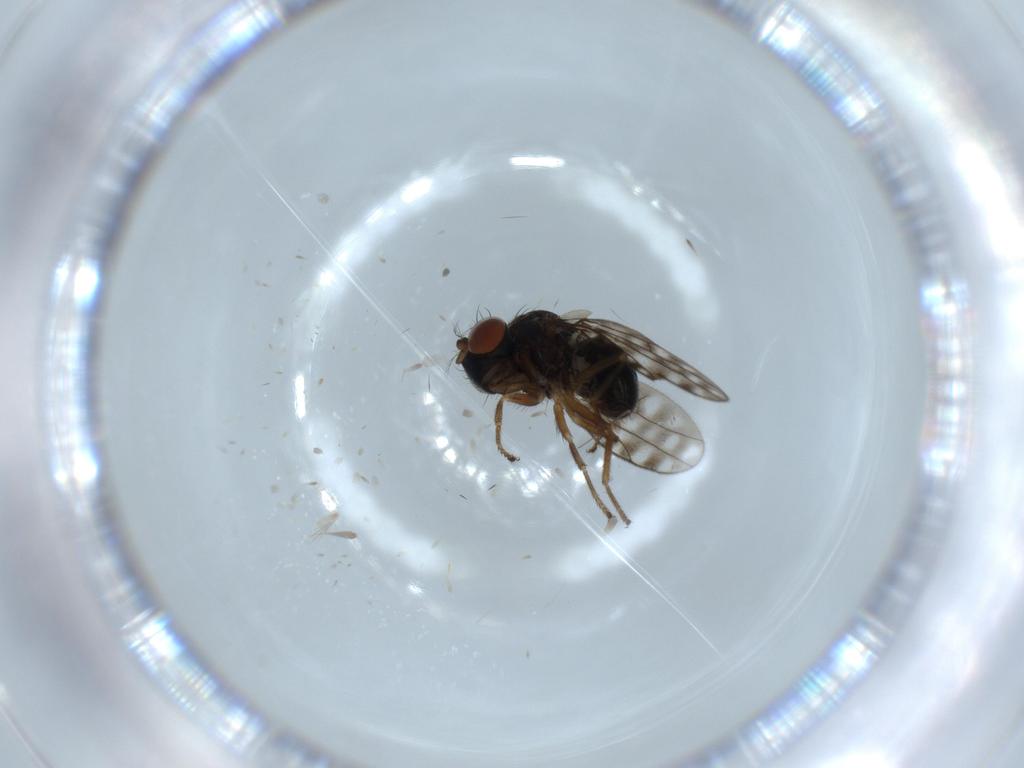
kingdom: Animalia
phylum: Arthropoda
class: Insecta
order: Diptera
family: Ephydridae
